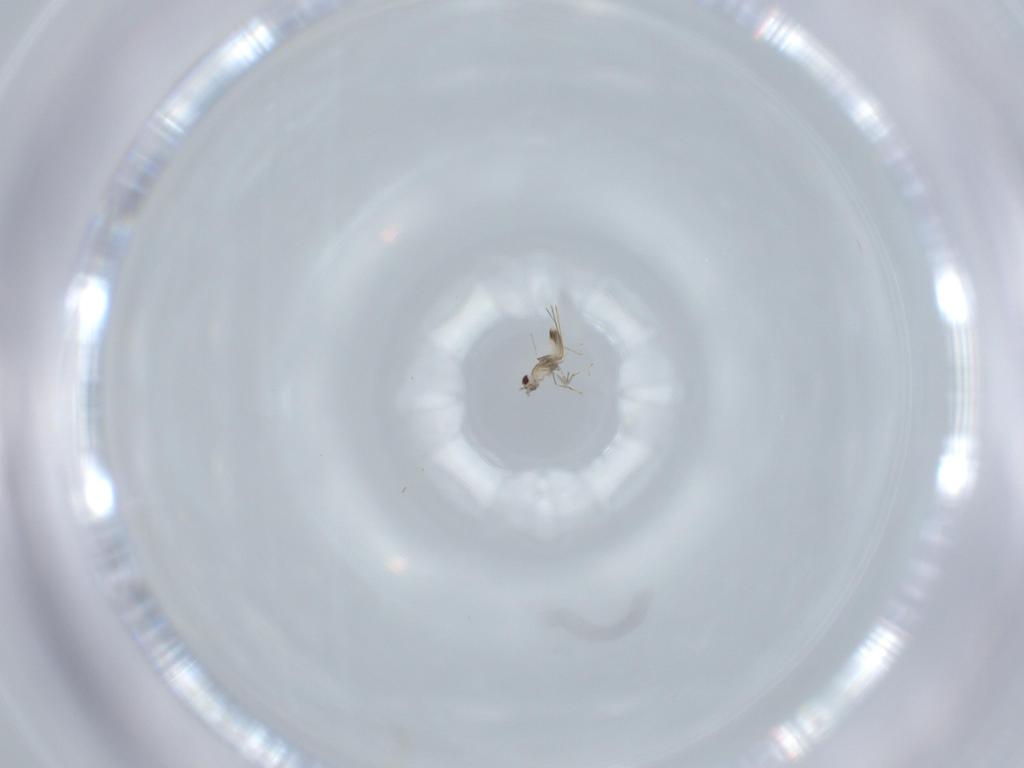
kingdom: Animalia
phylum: Arthropoda
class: Insecta
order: Hymenoptera
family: Mymaridae
